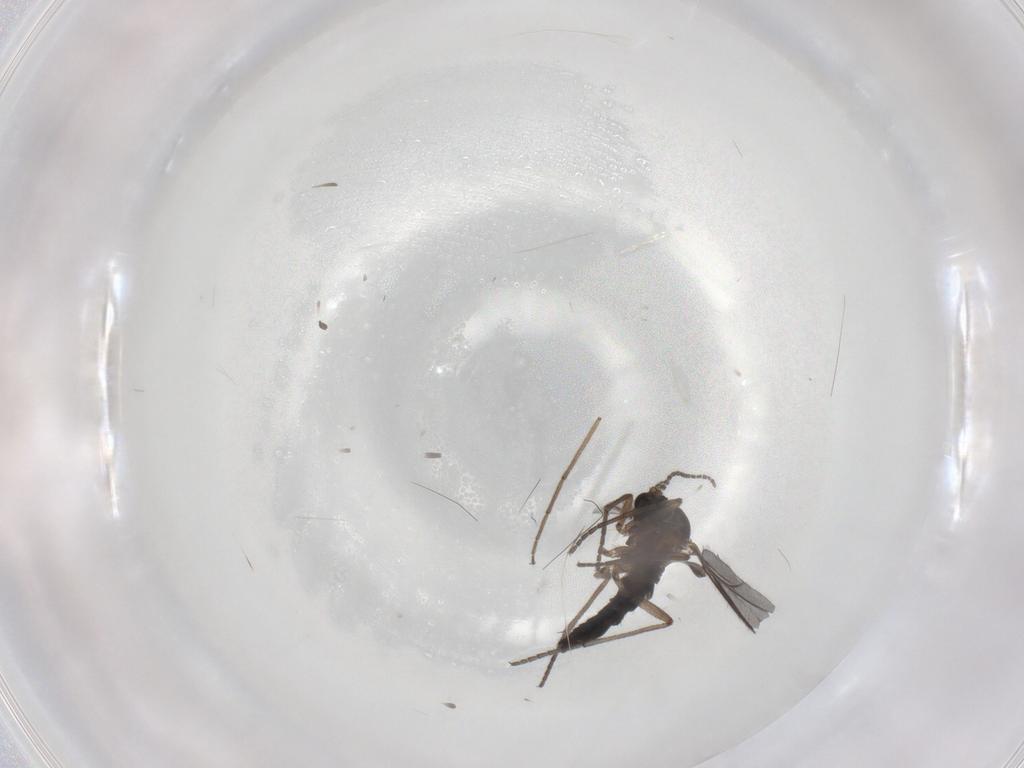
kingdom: Animalia
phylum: Arthropoda
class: Insecta
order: Diptera
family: Sciaridae
